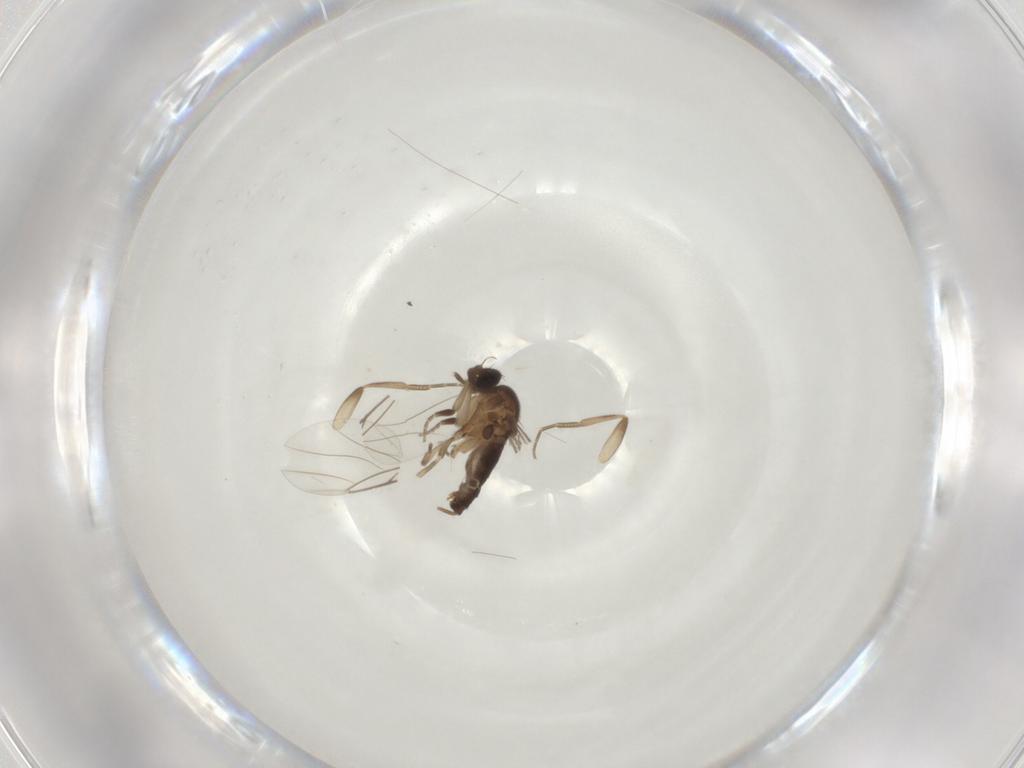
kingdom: Animalia
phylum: Arthropoda
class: Insecta
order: Diptera
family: Phoridae
